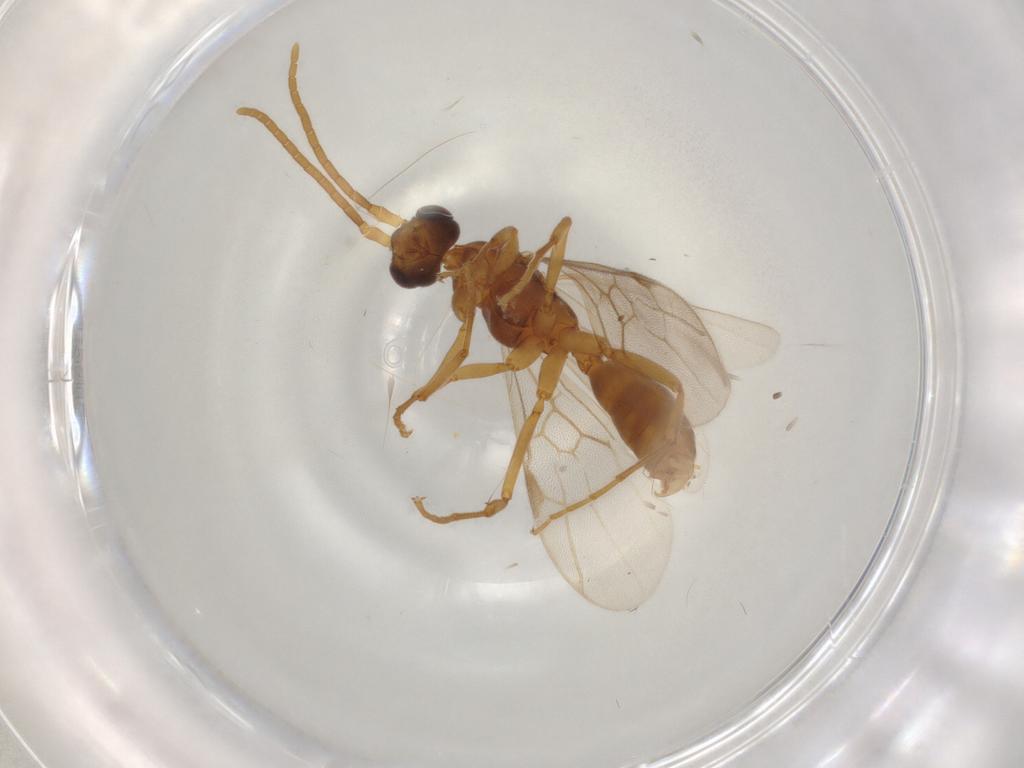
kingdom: Animalia
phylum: Arthropoda
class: Insecta
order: Hymenoptera
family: Formicidae
